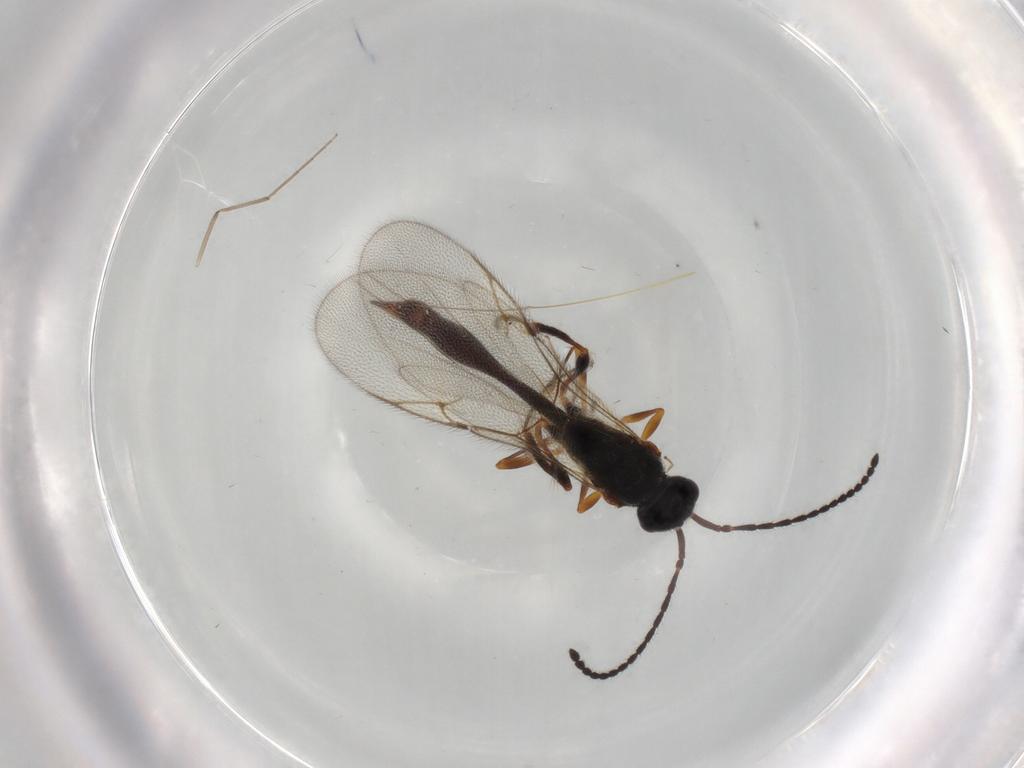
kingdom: Animalia
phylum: Arthropoda
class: Insecta
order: Hymenoptera
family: Diapriidae
